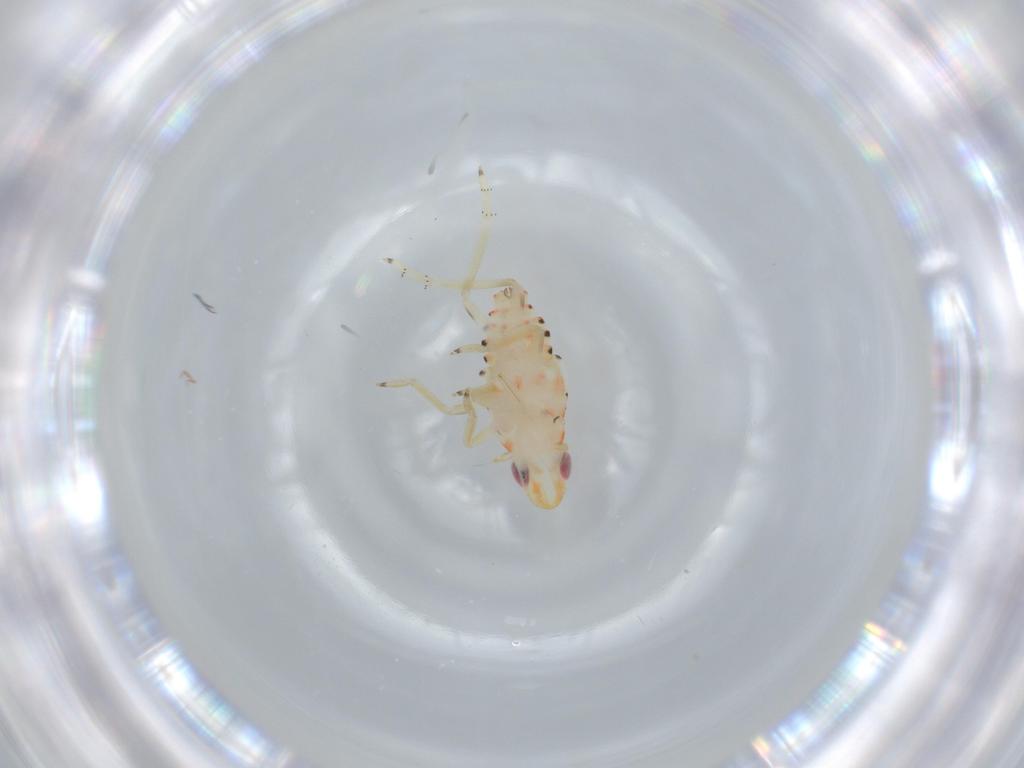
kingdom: Animalia
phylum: Arthropoda
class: Insecta
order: Hemiptera
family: Tropiduchidae
